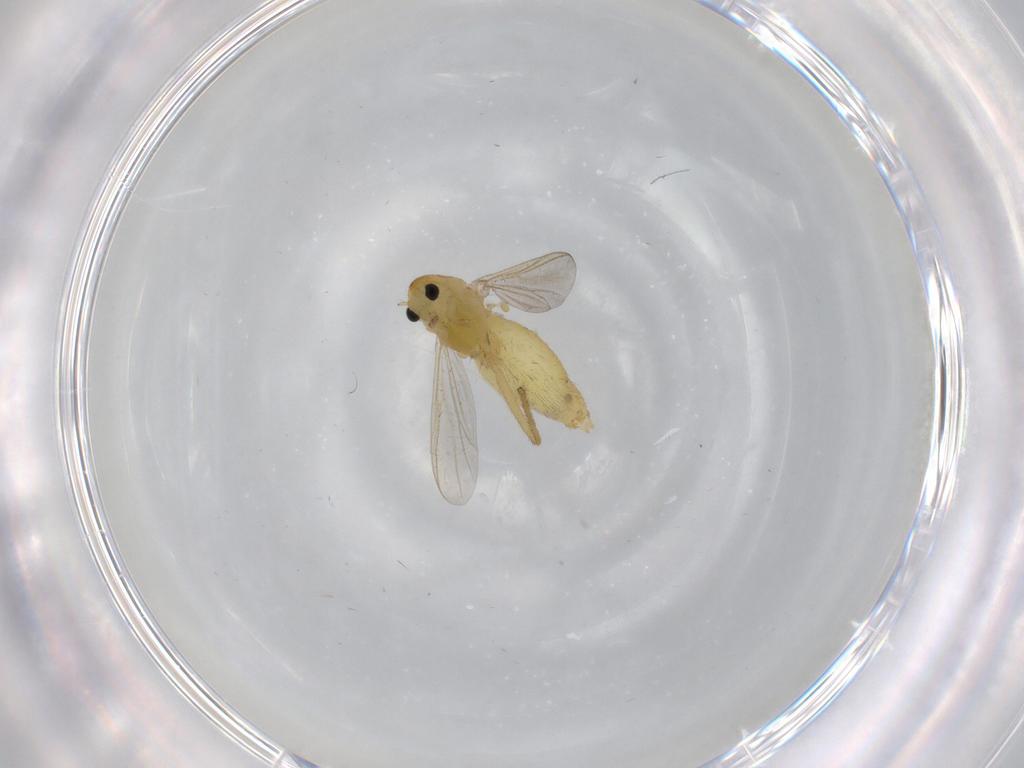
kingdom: Animalia
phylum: Arthropoda
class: Insecta
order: Diptera
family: Chironomidae
